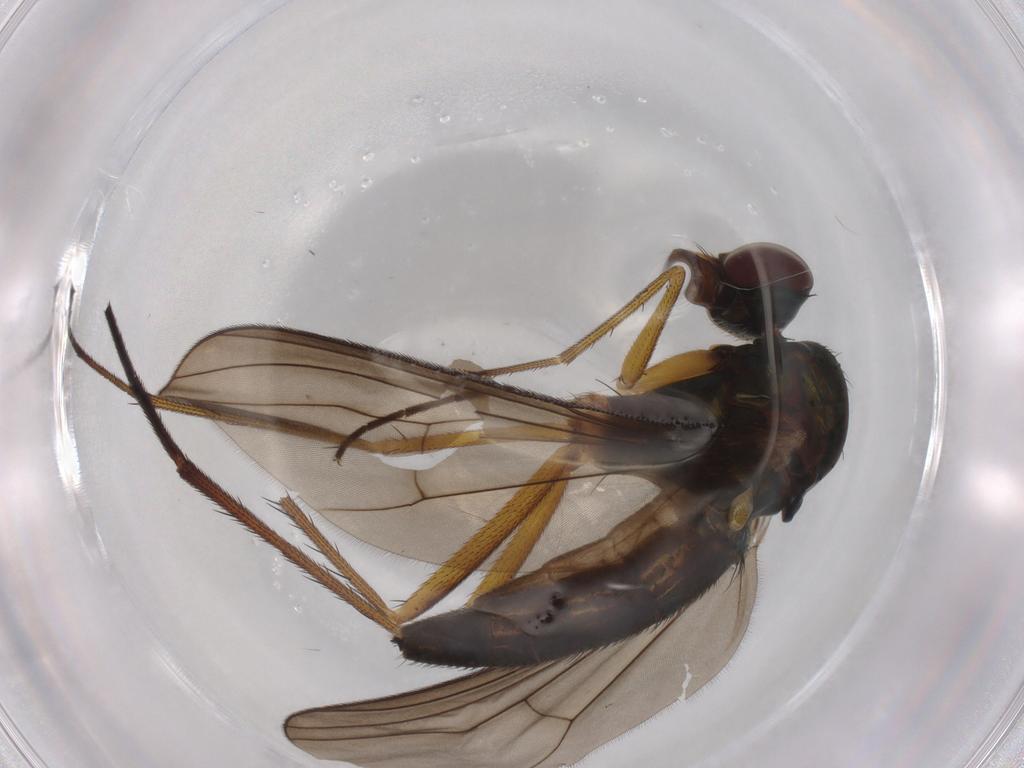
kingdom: Animalia
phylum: Arthropoda
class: Insecta
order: Diptera
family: Dolichopodidae
